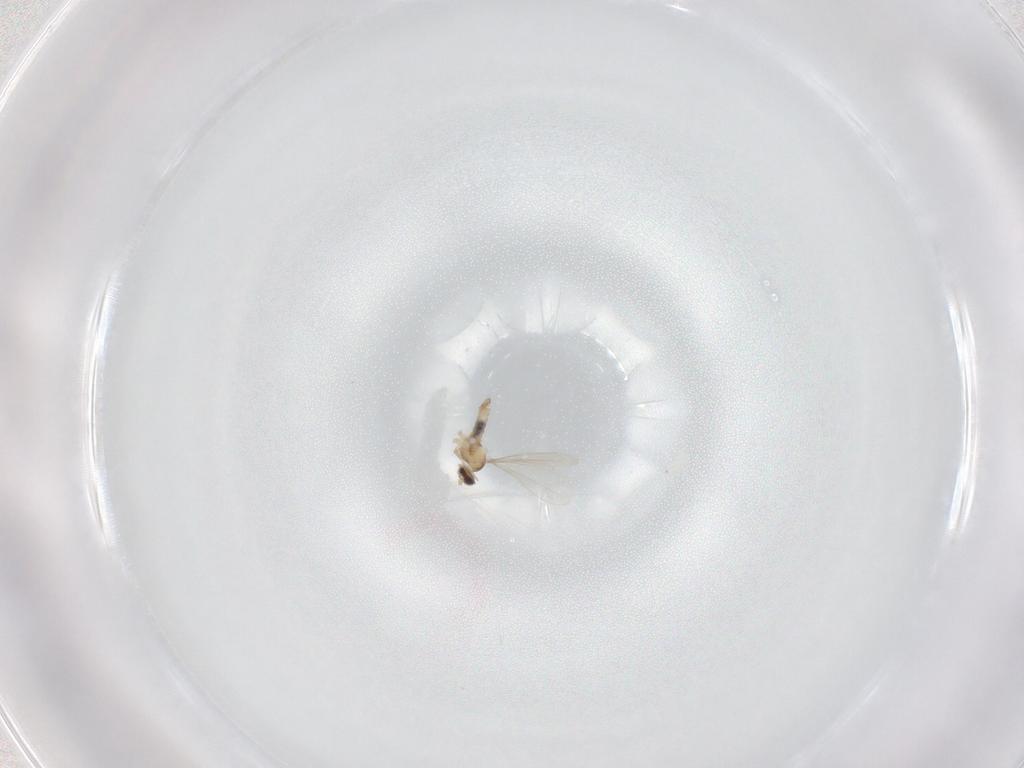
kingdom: Animalia
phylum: Arthropoda
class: Insecta
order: Diptera
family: Cecidomyiidae
